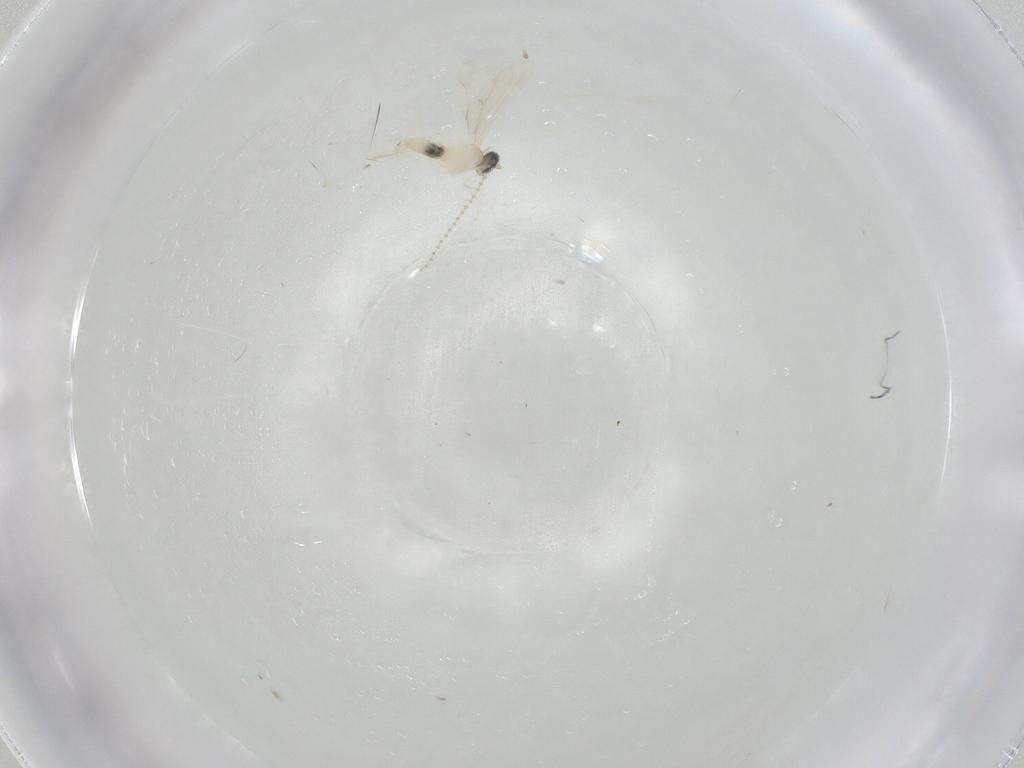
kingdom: Animalia
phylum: Arthropoda
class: Insecta
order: Diptera
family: Cecidomyiidae
